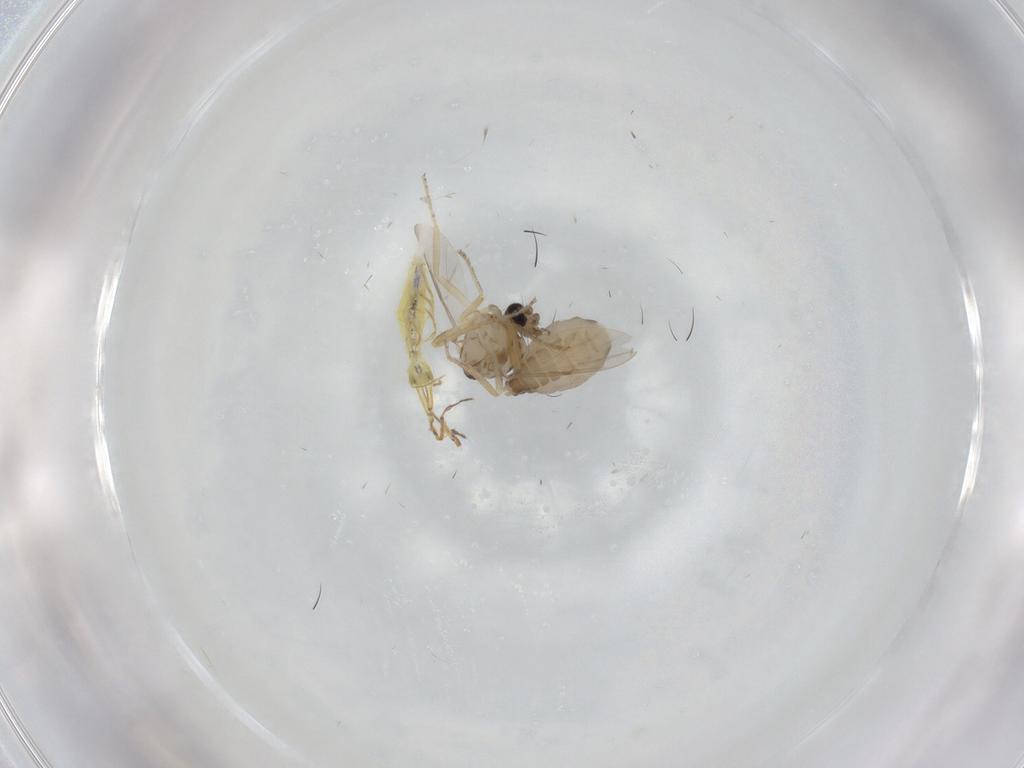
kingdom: Animalia
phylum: Arthropoda
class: Insecta
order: Diptera
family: Ceratopogonidae
